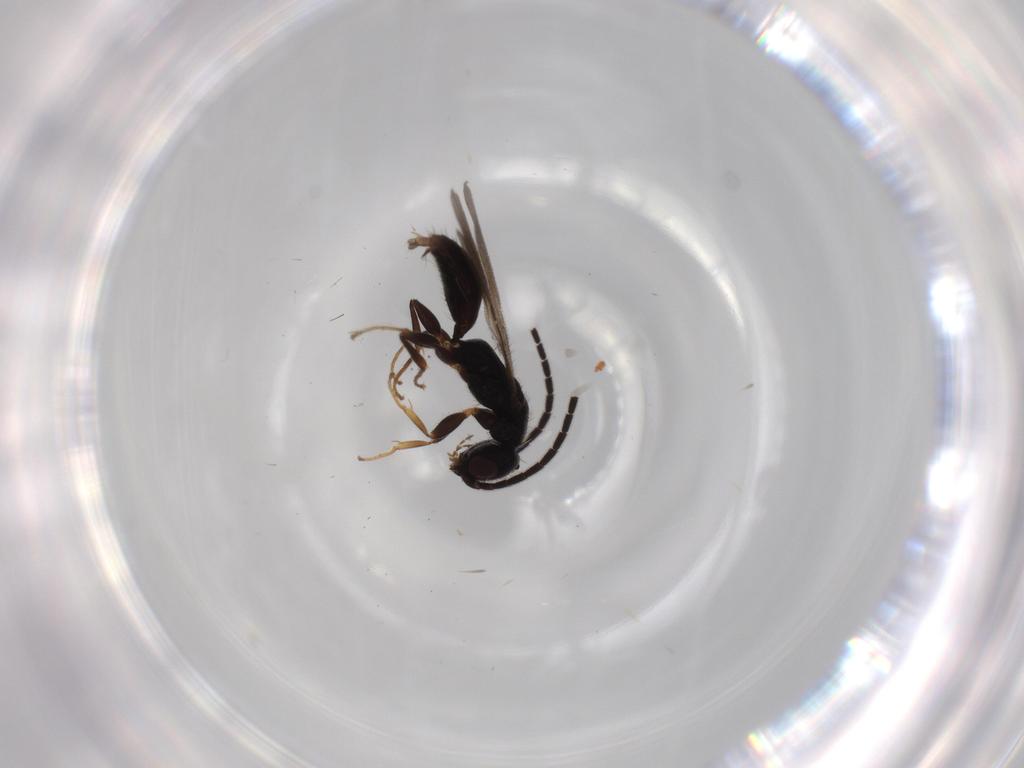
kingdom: Animalia
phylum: Arthropoda
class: Insecta
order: Hymenoptera
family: Bethylidae
